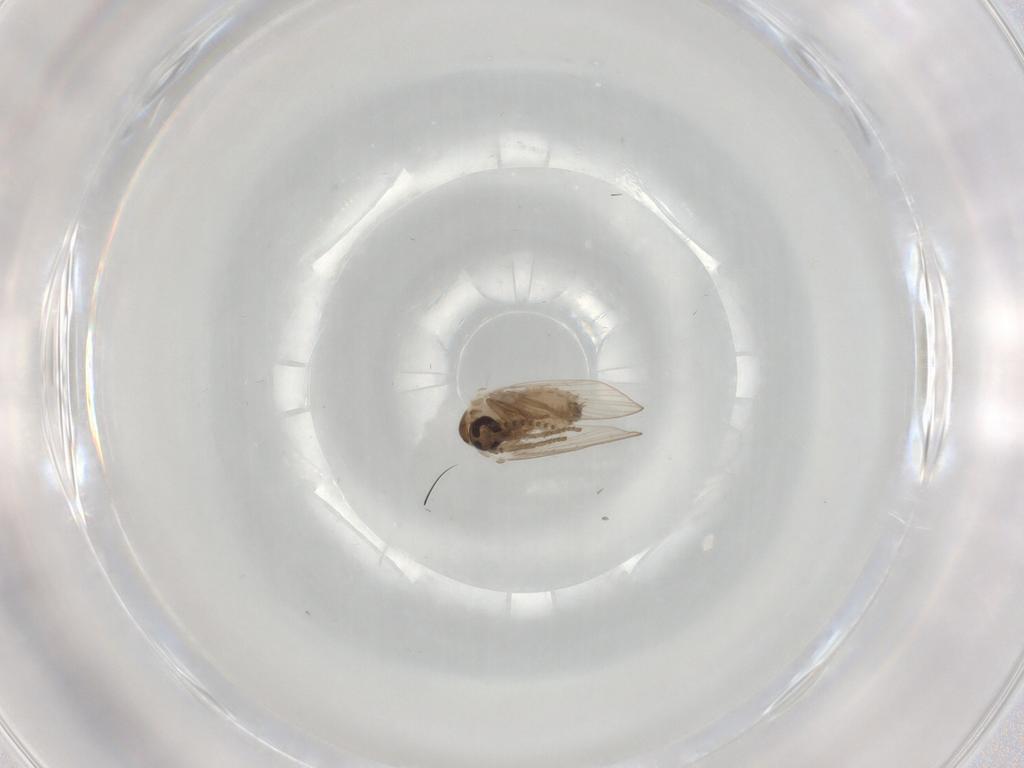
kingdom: Animalia
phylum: Arthropoda
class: Insecta
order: Diptera
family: Psychodidae
